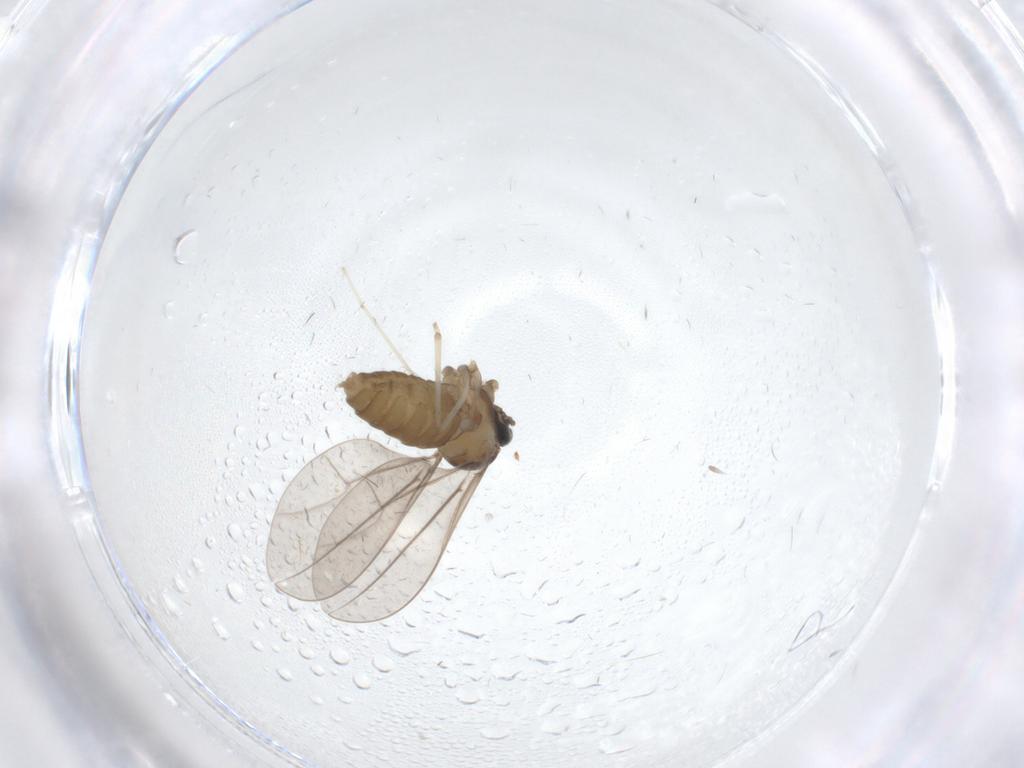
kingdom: Animalia
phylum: Arthropoda
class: Insecta
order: Diptera
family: Cecidomyiidae
